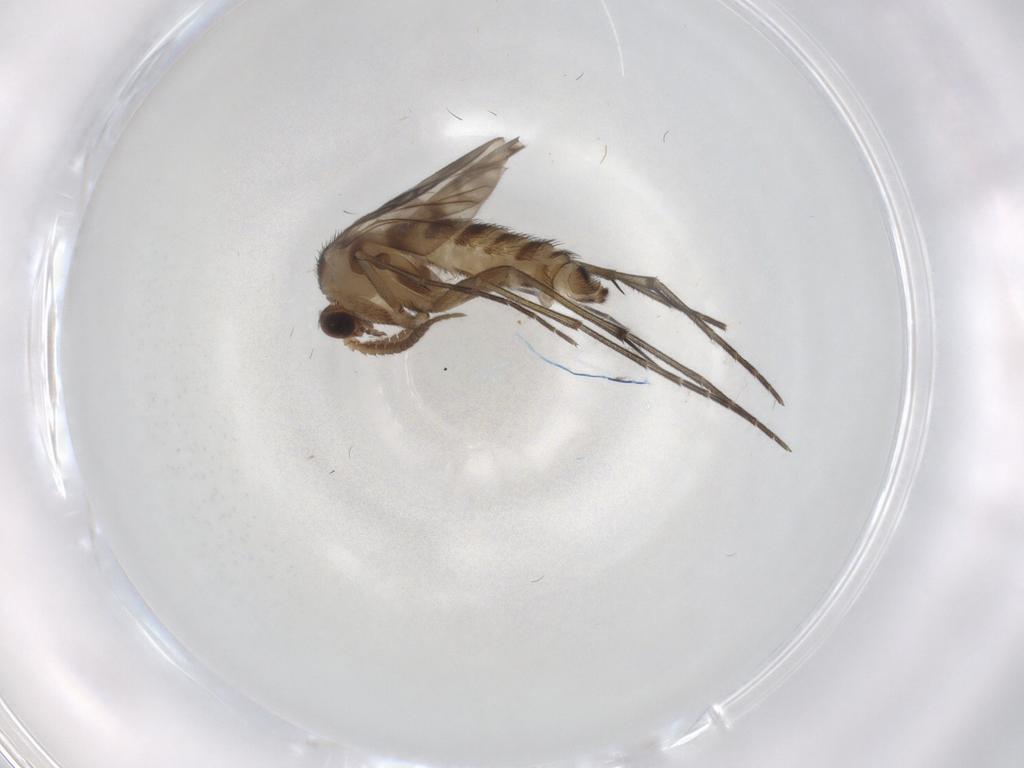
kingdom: Animalia
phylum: Arthropoda
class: Insecta
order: Diptera
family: Keroplatidae
